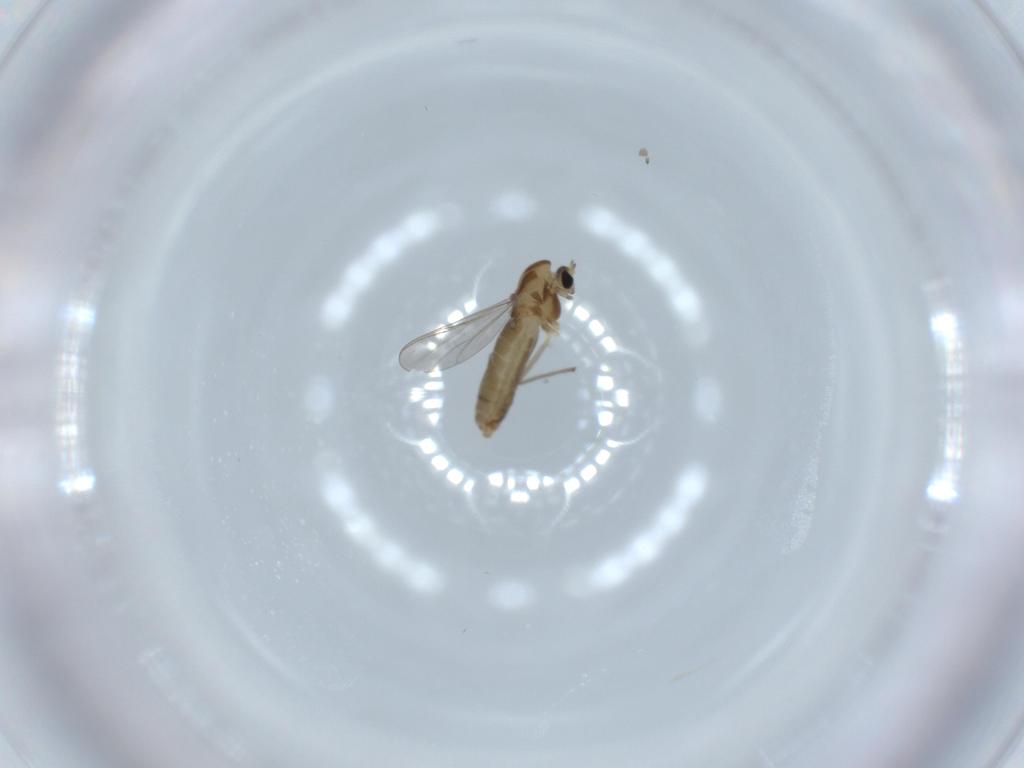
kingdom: Animalia
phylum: Arthropoda
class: Insecta
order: Diptera
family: Chironomidae
